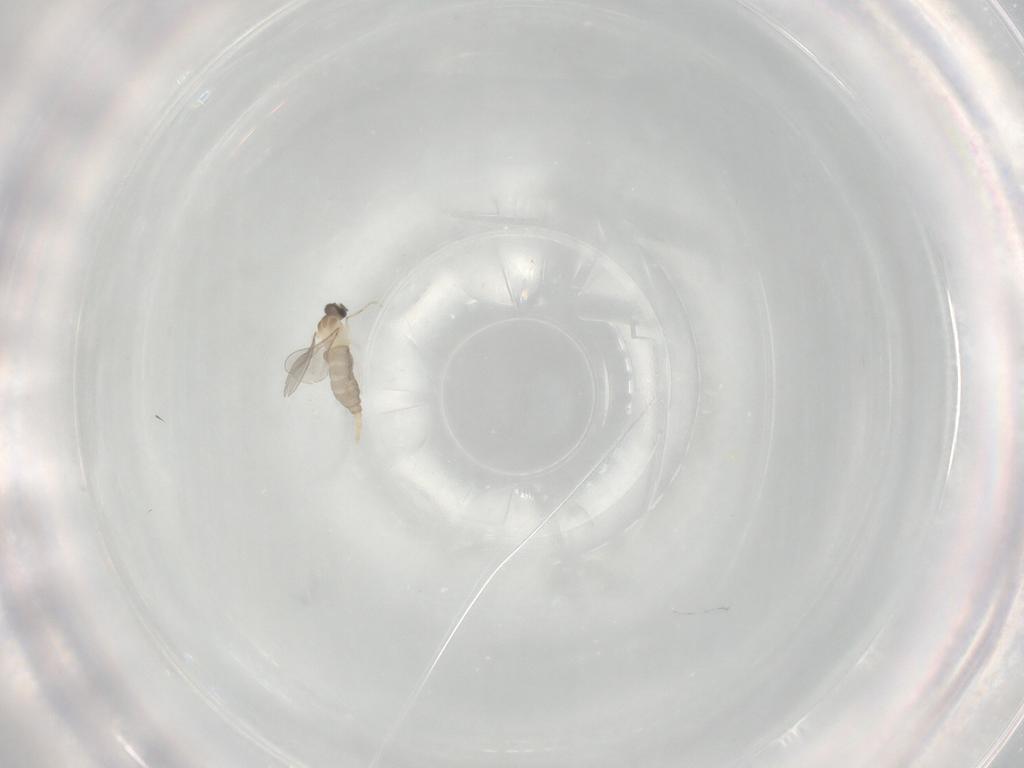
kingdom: Animalia
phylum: Arthropoda
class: Insecta
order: Diptera
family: Cecidomyiidae
